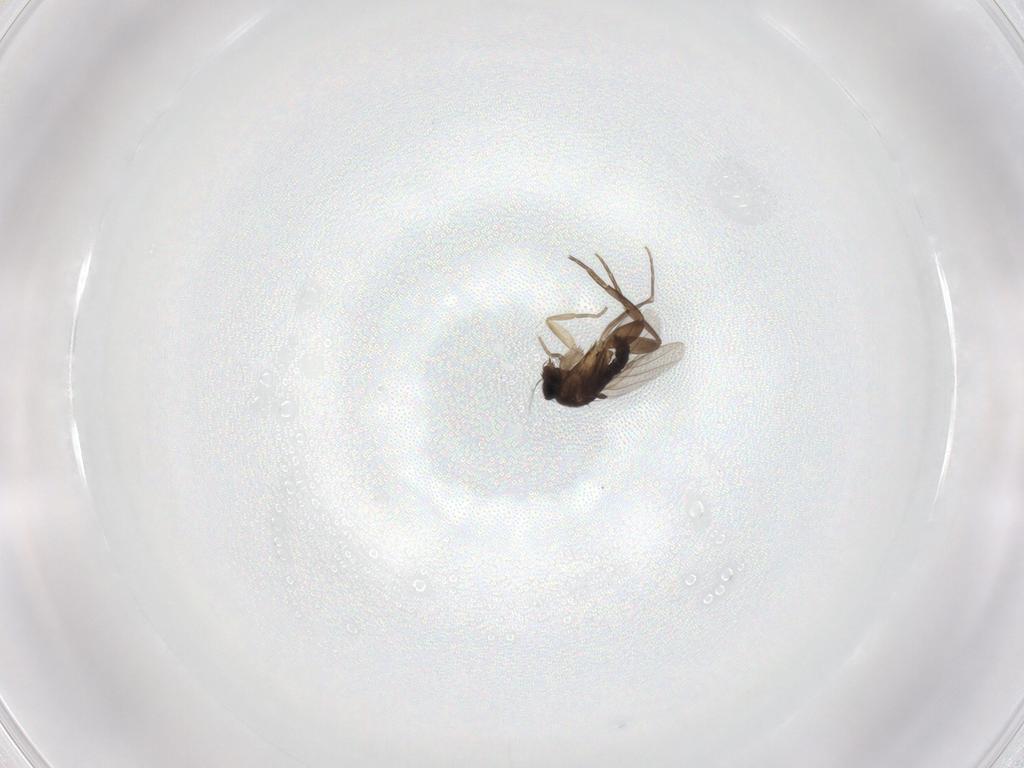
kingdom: Animalia
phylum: Arthropoda
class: Insecta
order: Diptera
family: Phoridae
